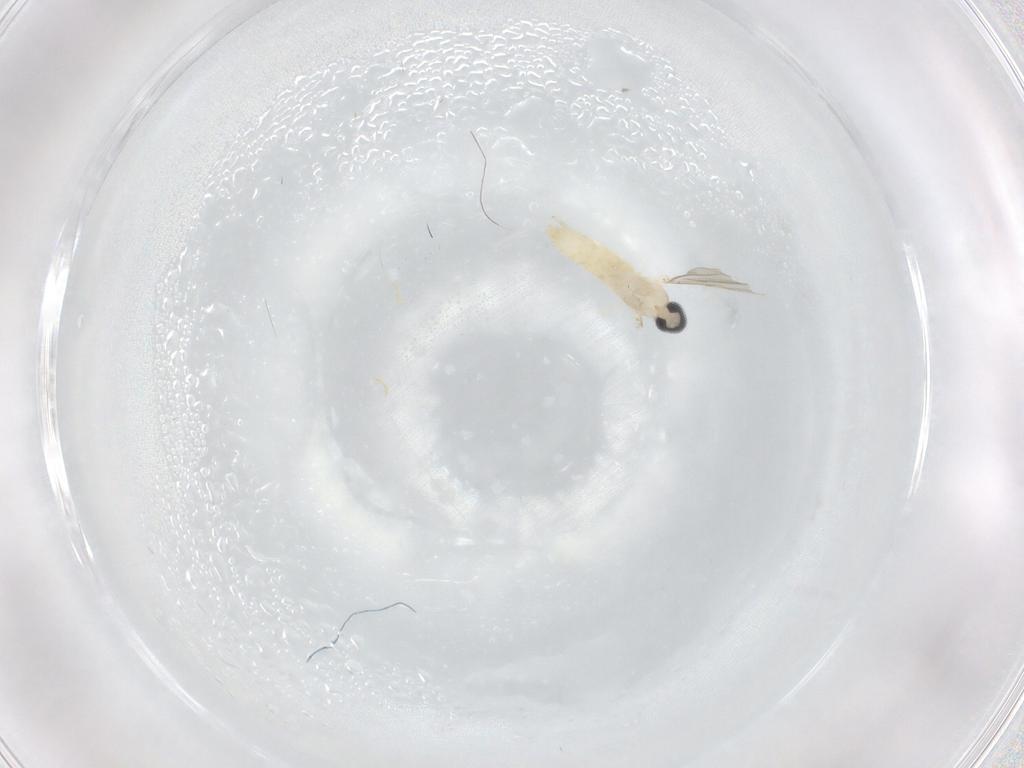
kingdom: Animalia
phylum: Arthropoda
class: Insecta
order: Diptera
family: Cecidomyiidae
